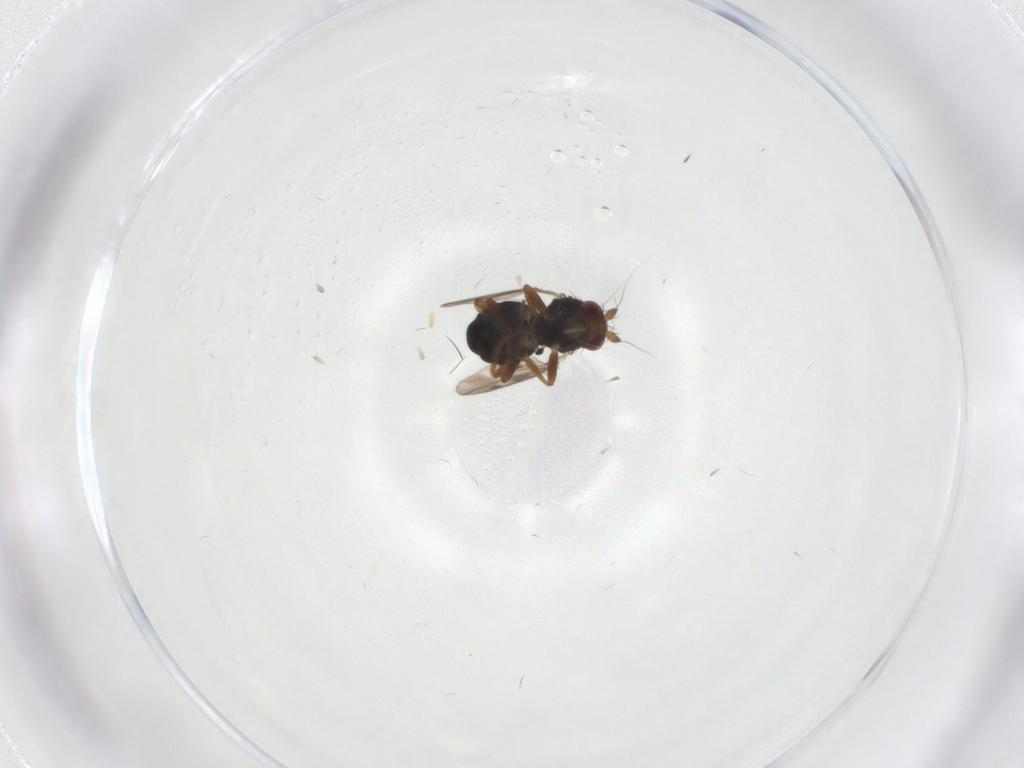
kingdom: Animalia
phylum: Arthropoda
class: Insecta
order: Diptera
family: Sphaeroceridae
